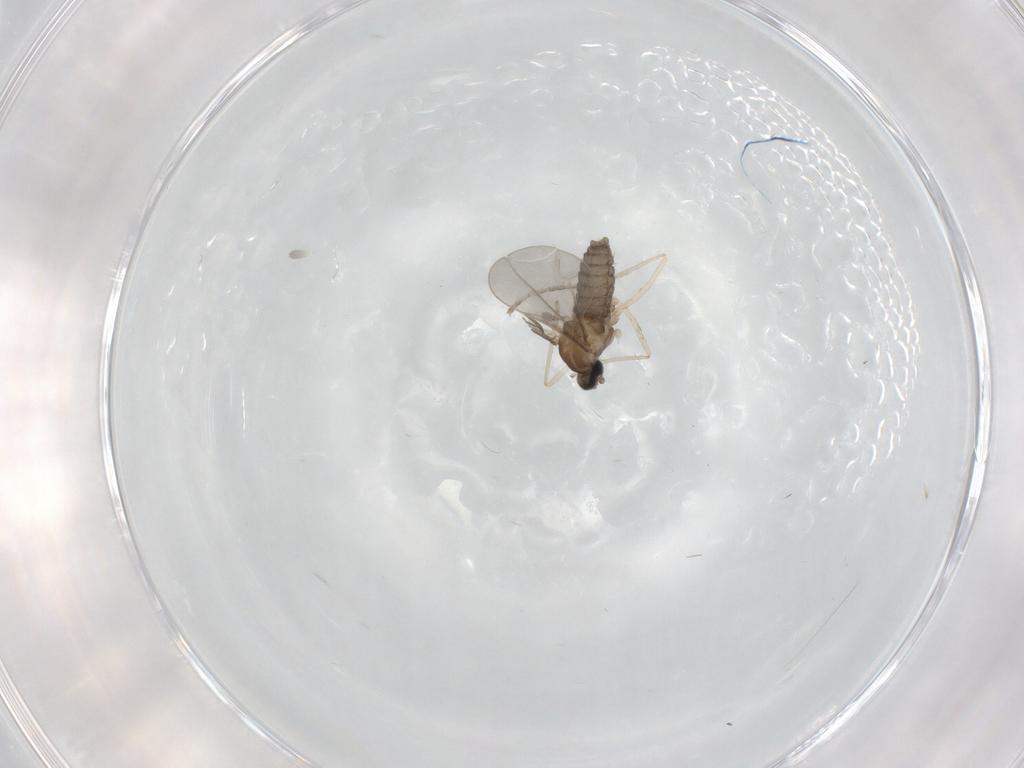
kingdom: Animalia
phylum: Arthropoda
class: Insecta
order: Diptera
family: Cecidomyiidae
